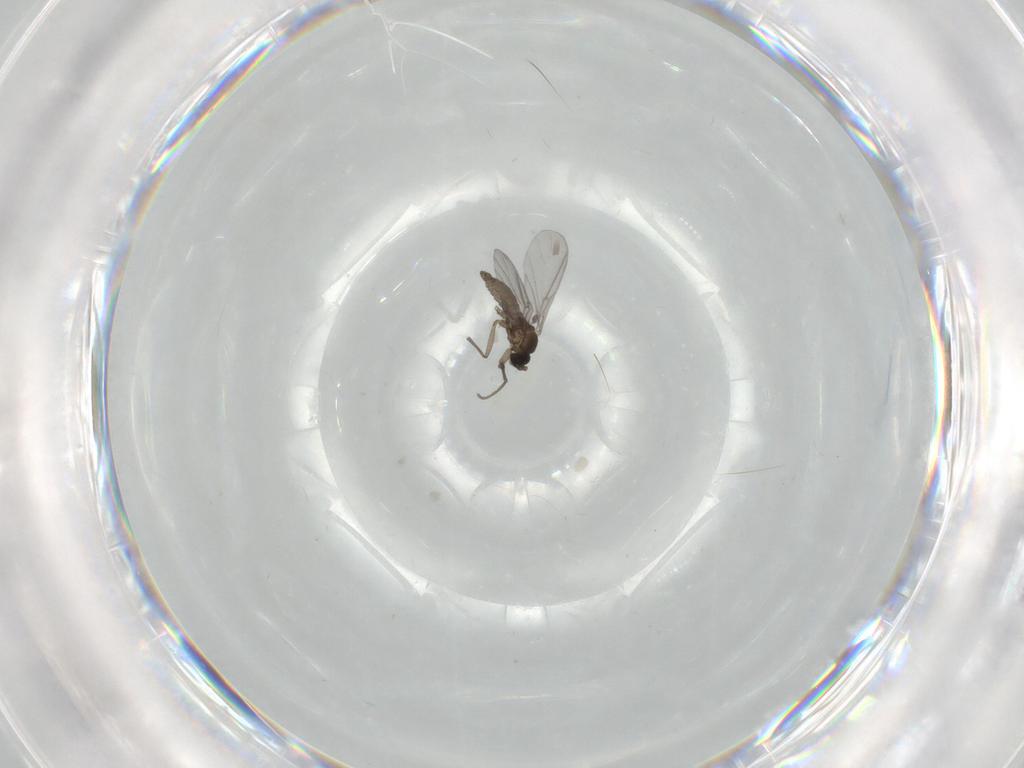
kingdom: Animalia
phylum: Arthropoda
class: Insecta
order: Diptera
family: Sciaridae
